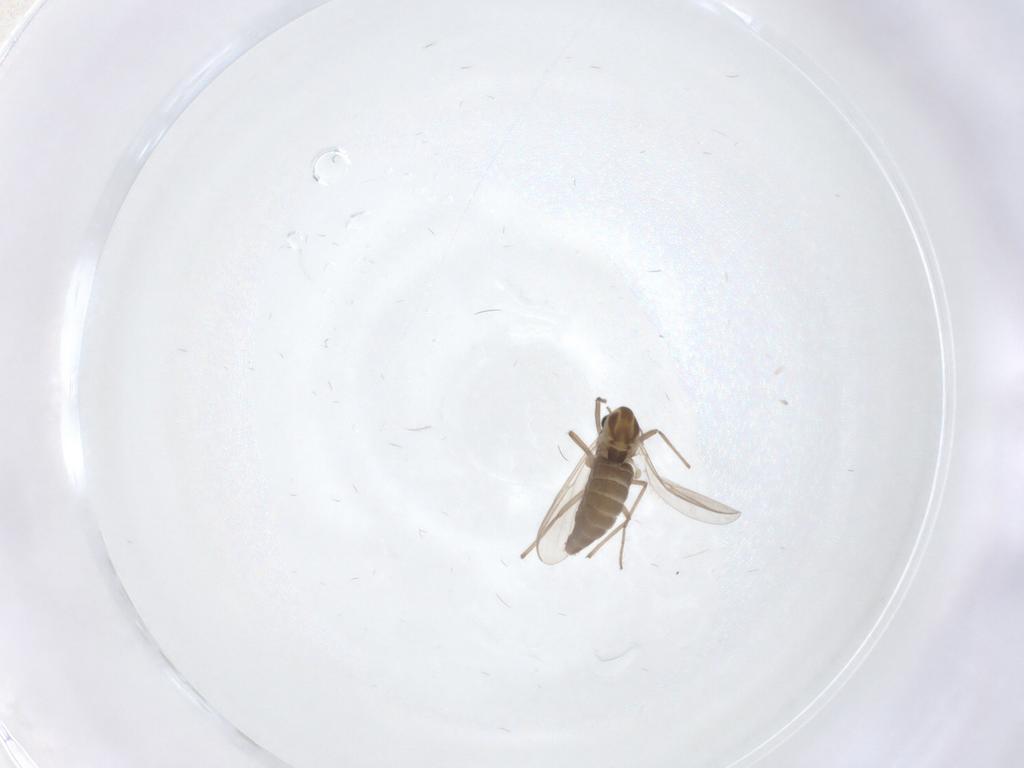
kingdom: Animalia
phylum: Arthropoda
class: Insecta
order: Diptera
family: Chironomidae
